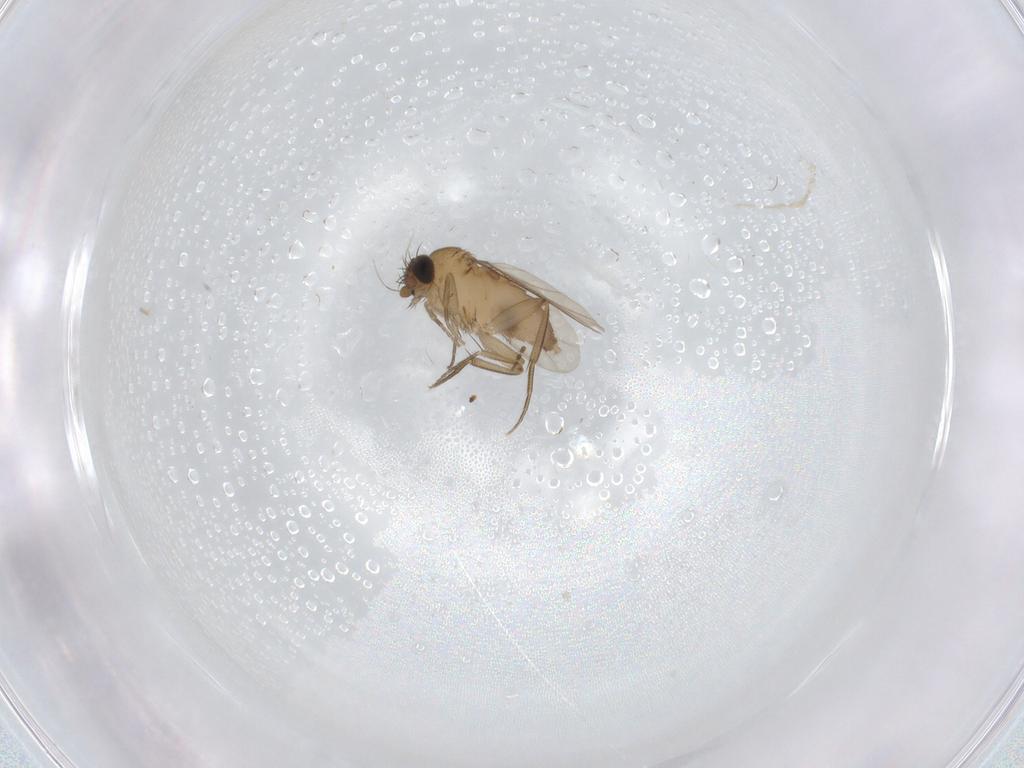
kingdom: Animalia
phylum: Arthropoda
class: Insecta
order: Diptera
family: Phoridae
